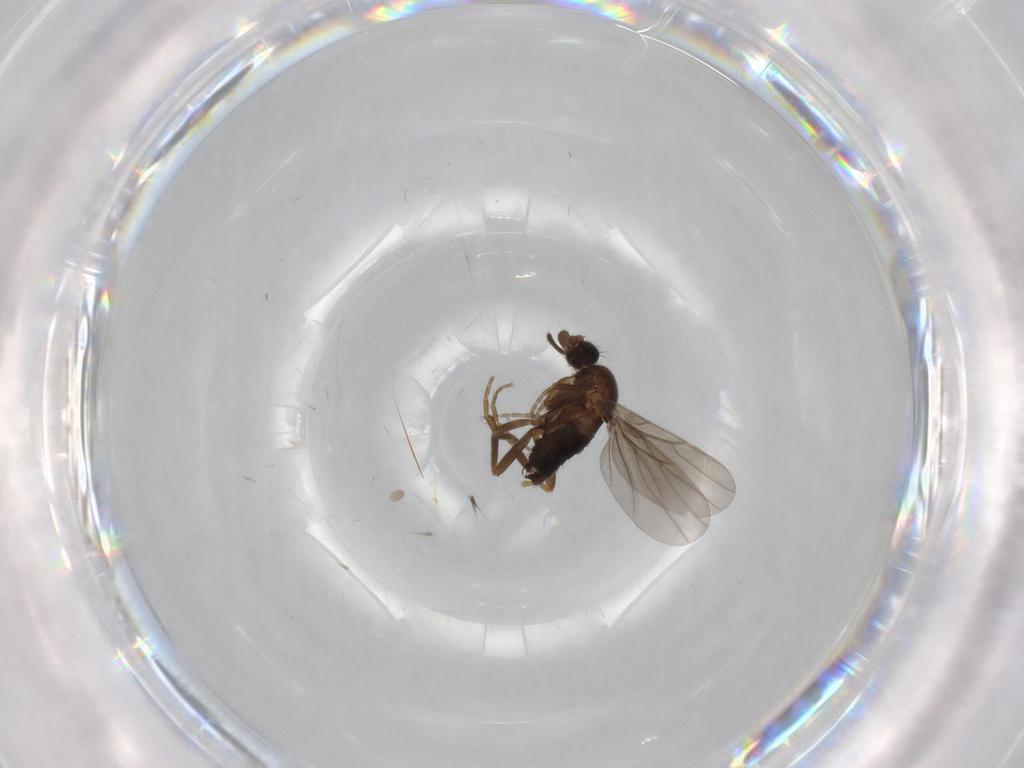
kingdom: Animalia
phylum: Arthropoda
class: Insecta
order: Diptera
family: Phoridae
